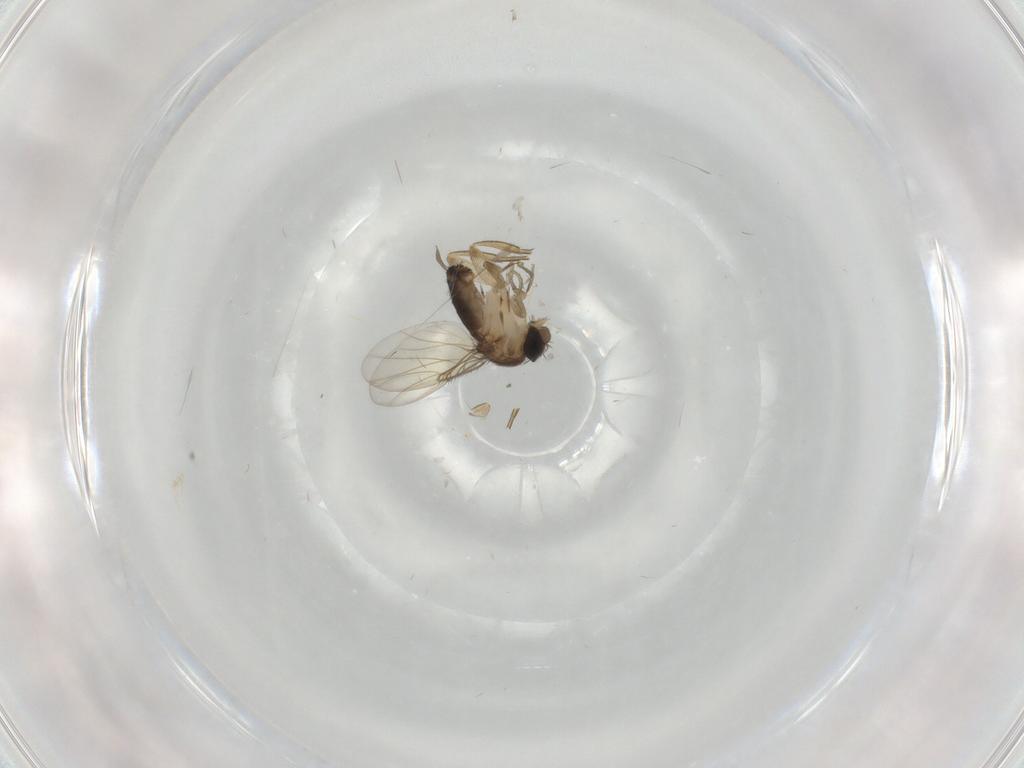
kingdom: Animalia
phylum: Arthropoda
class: Insecta
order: Diptera
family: Chironomidae
